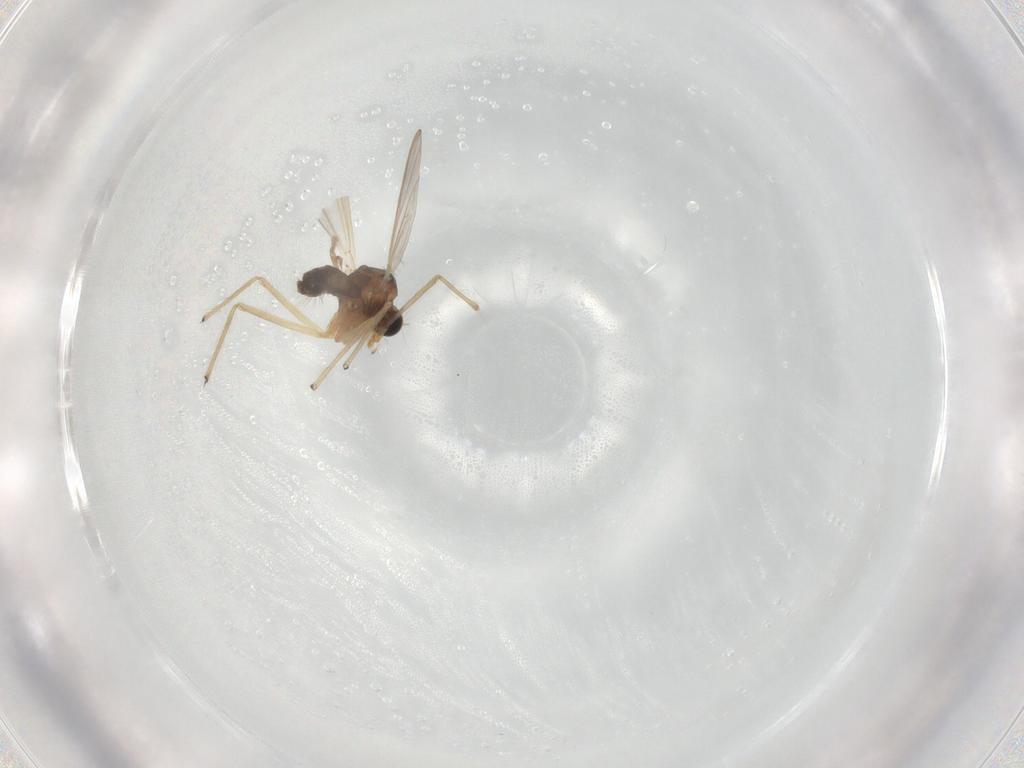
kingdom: Animalia
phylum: Arthropoda
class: Insecta
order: Diptera
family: Chironomidae
